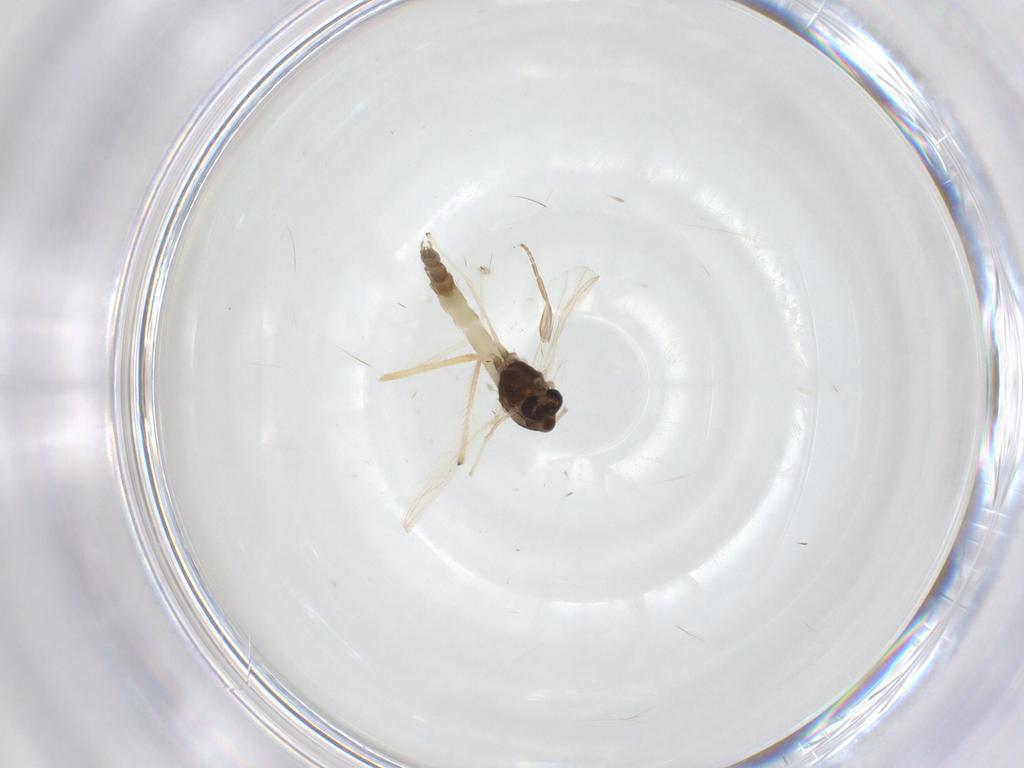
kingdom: Animalia
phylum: Arthropoda
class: Insecta
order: Diptera
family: Phoridae
